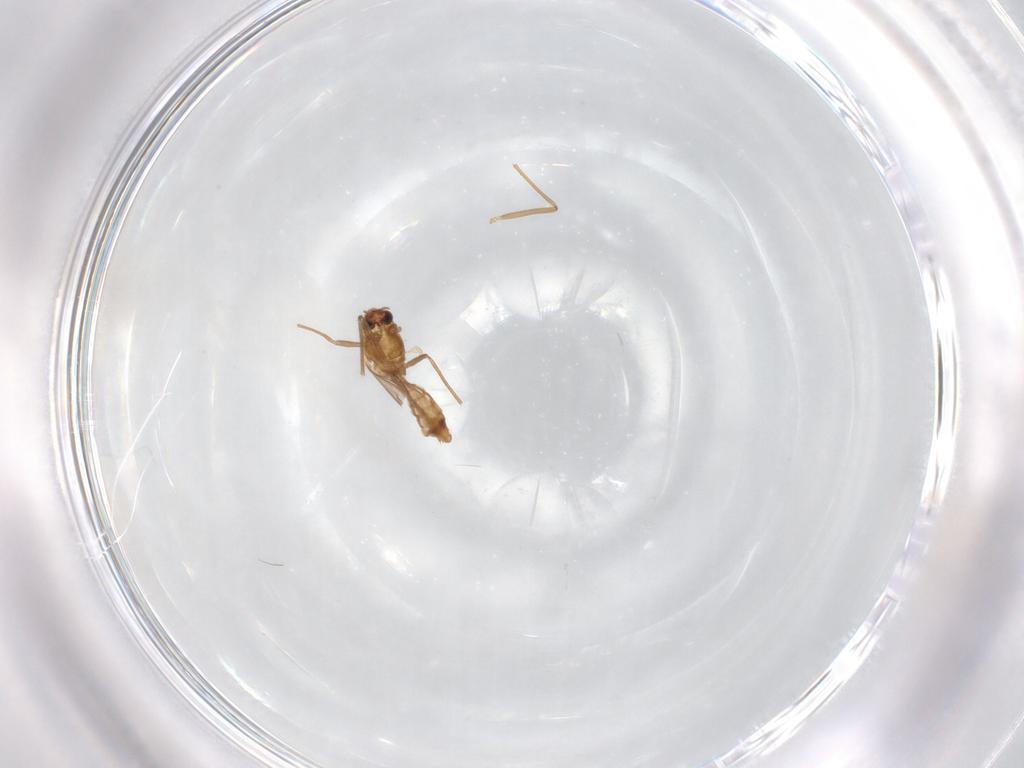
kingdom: Animalia
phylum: Arthropoda
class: Insecta
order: Diptera
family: Chironomidae
